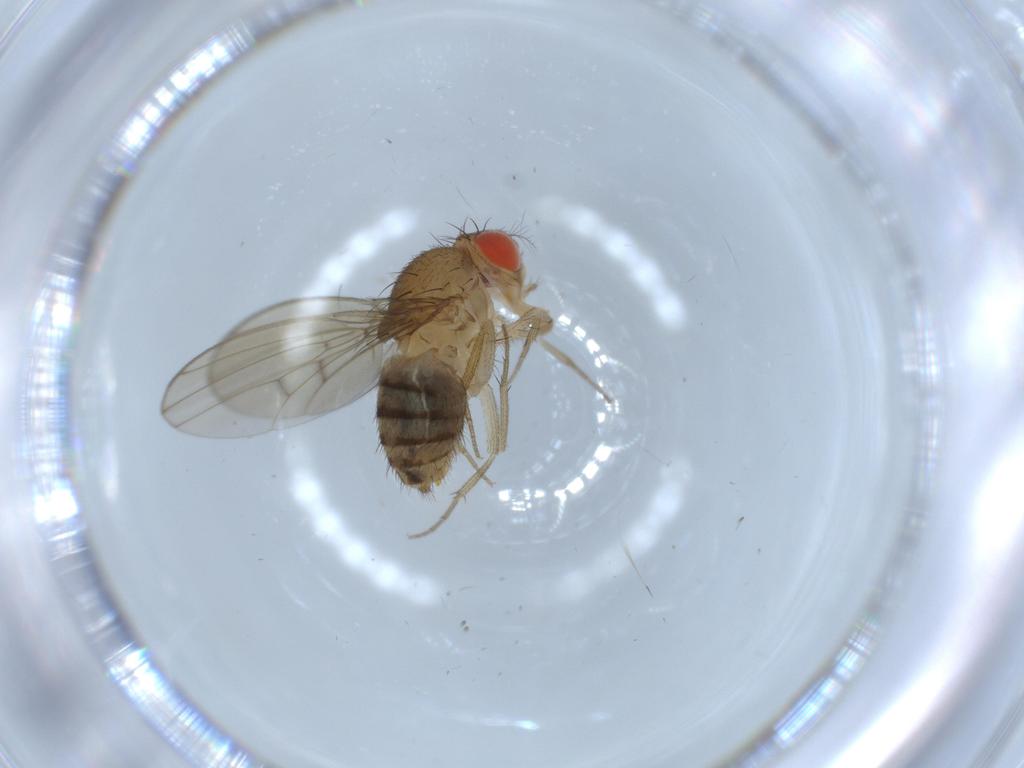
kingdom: Animalia
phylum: Arthropoda
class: Insecta
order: Diptera
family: Drosophilidae
